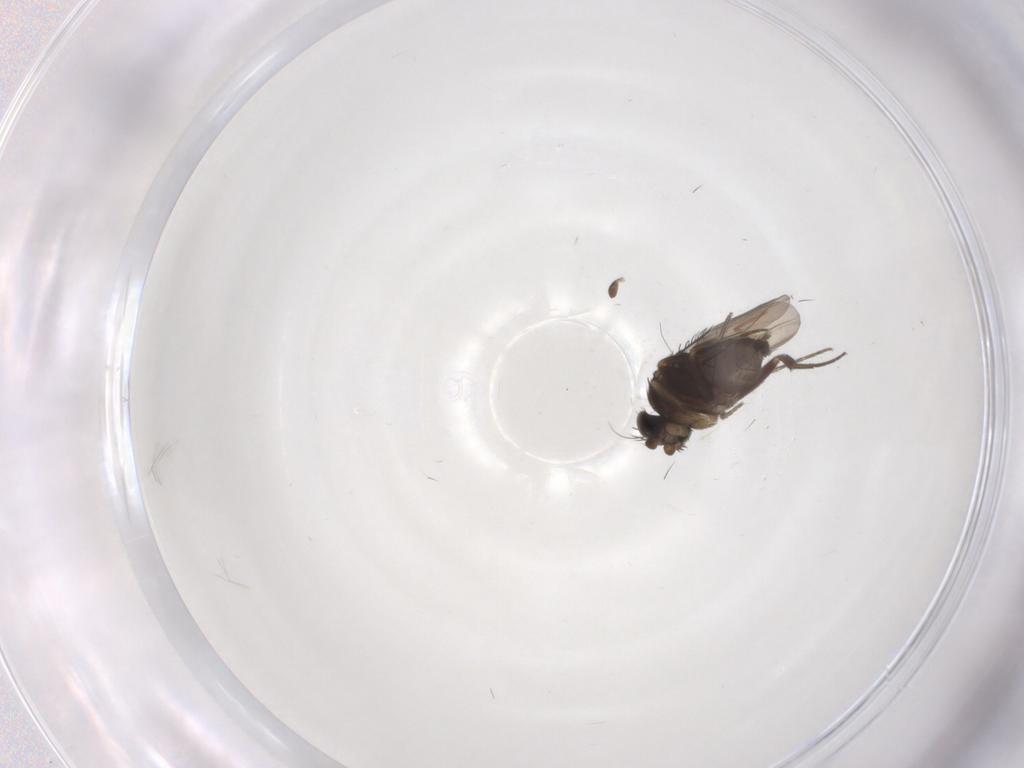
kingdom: Animalia
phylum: Arthropoda
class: Insecta
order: Diptera
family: Phoridae
